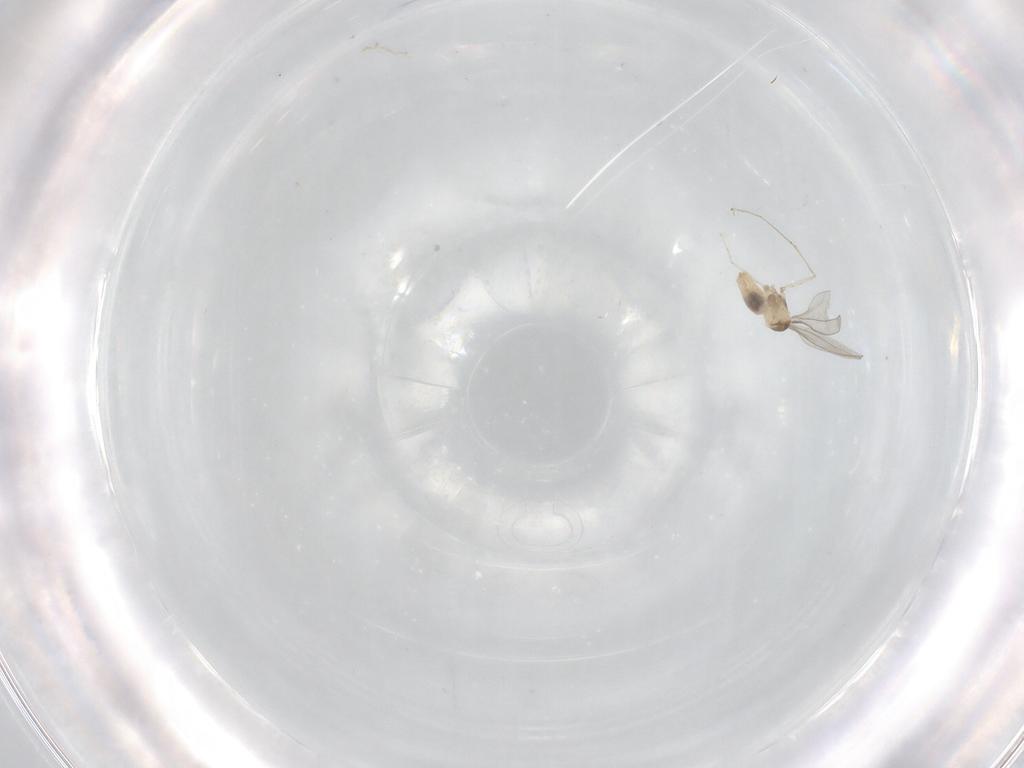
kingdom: Animalia
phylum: Arthropoda
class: Insecta
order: Diptera
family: Cecidomyiidae
